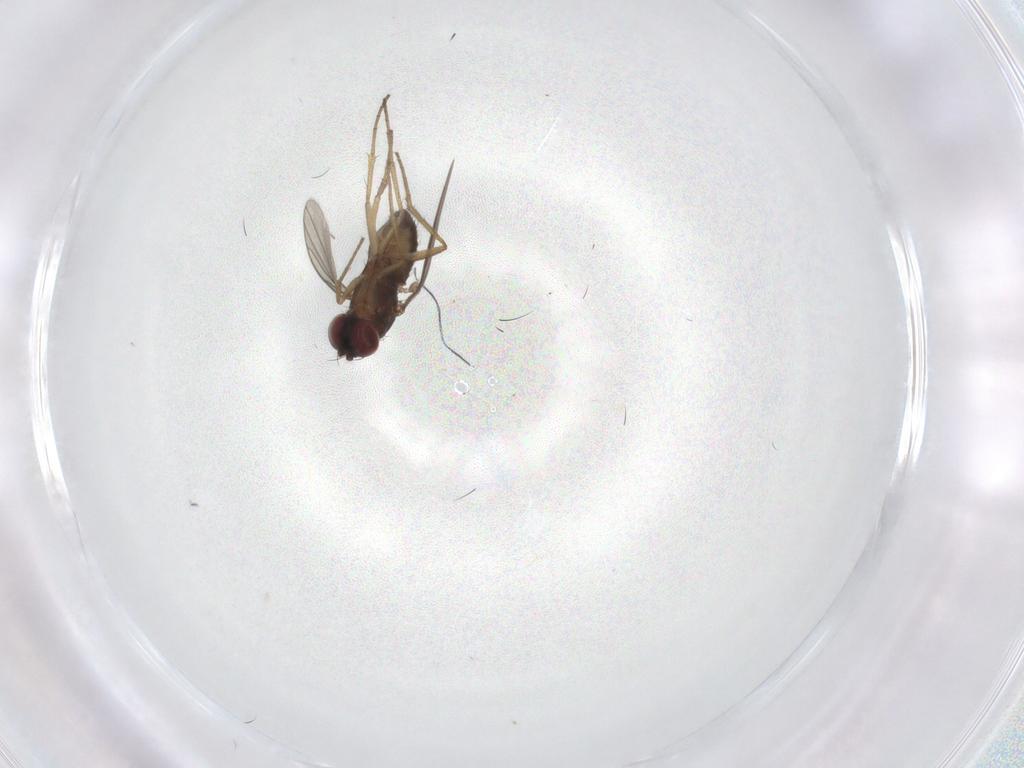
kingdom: Animalia
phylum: Arthropoda
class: Insecta
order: Diptera
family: Dolichopodidae
